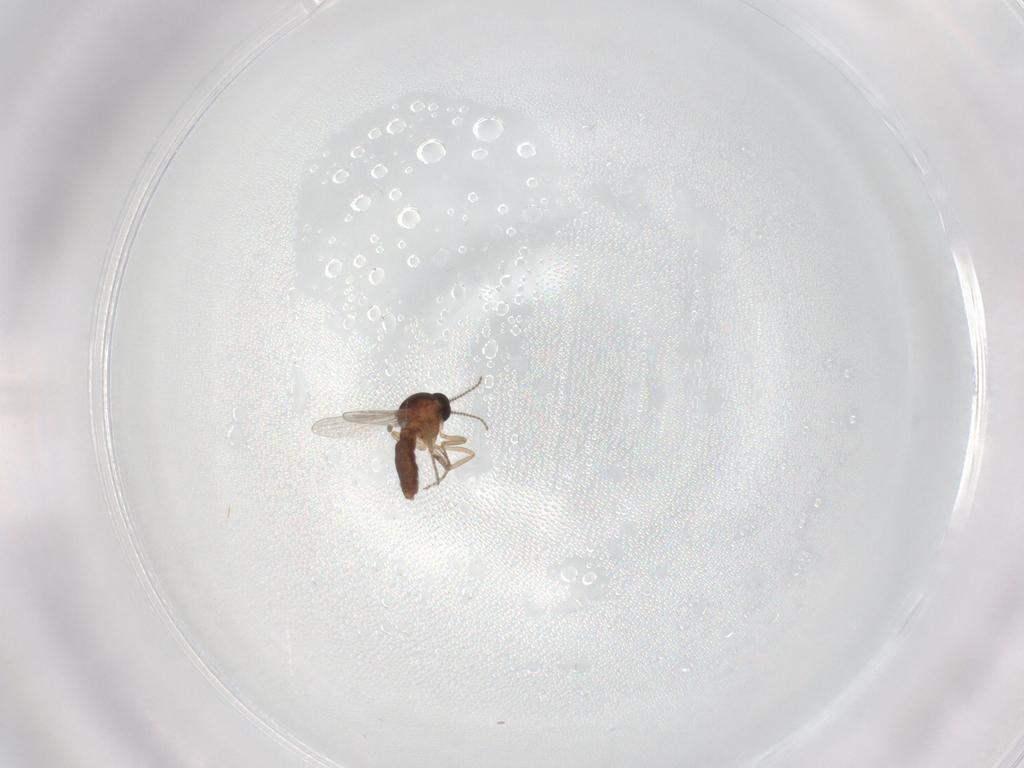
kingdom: Animalia
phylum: Arthropoda
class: Insecta
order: Diptera
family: Ceratopogonidae
